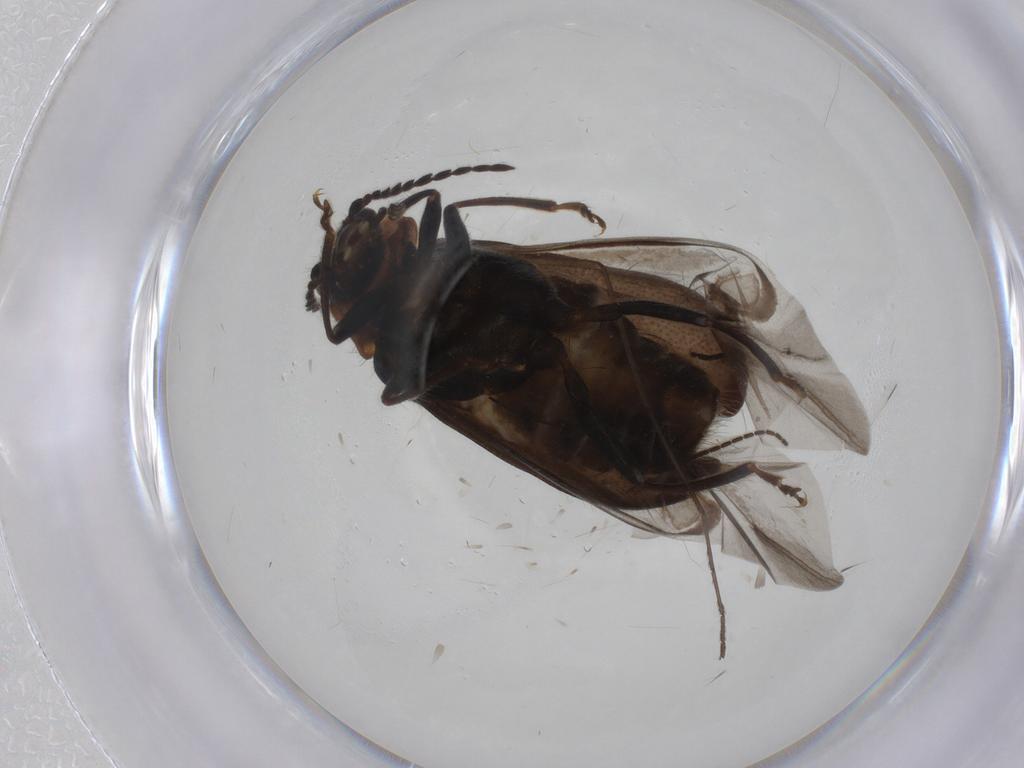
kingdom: Animalia
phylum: Arthropoda
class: Insecta
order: Coleoptera
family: Melyridae
